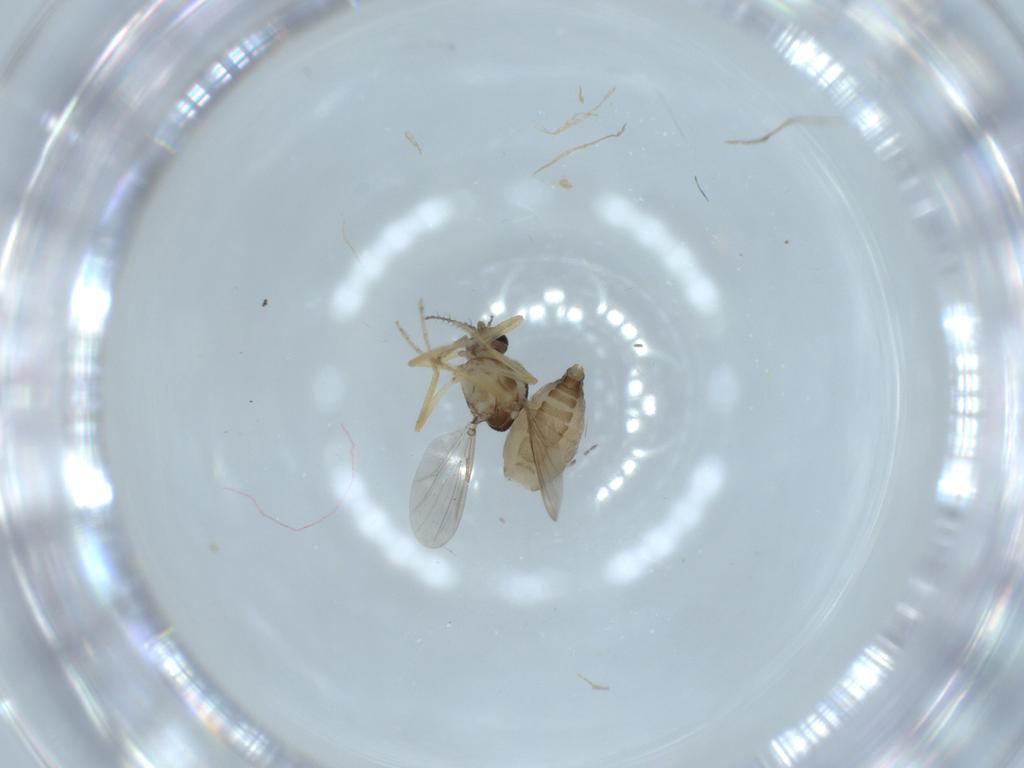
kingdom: Animalia
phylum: Arthropoda
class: Insecta
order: Diptera
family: Ceratopogonidae
